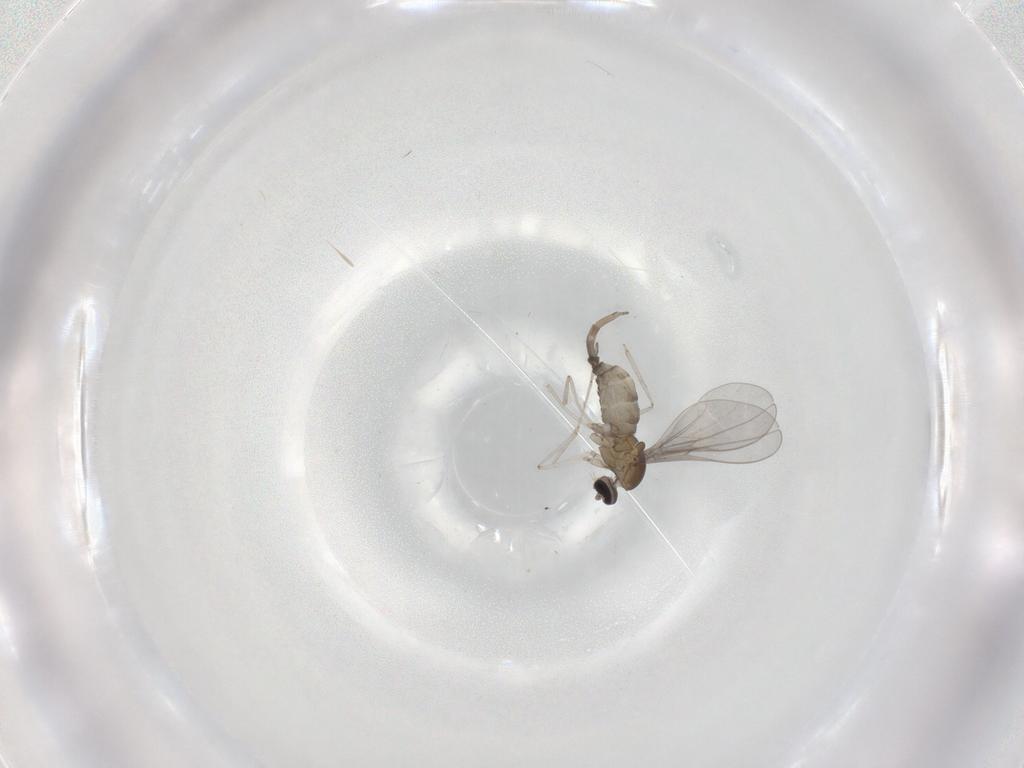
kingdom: Animalia
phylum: Arthropoda
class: Insecta
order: Diptera
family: Cecidomyiidae
